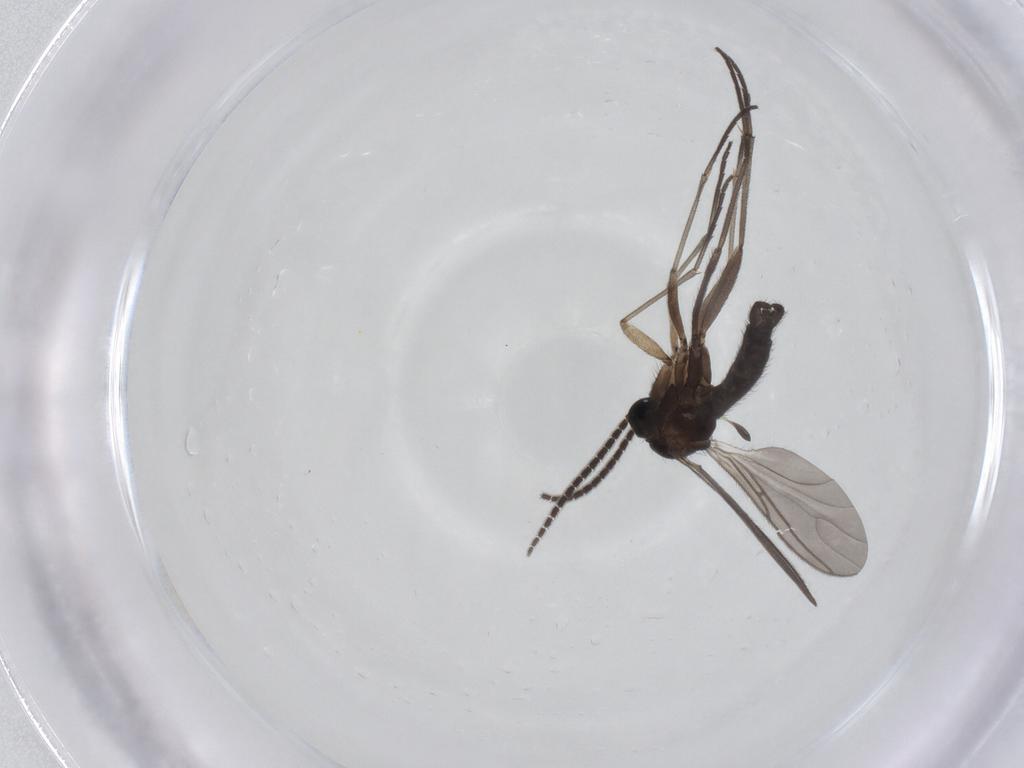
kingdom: Animalia
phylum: Arthropoda
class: Insecta
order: Diptera
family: Sciaridae
